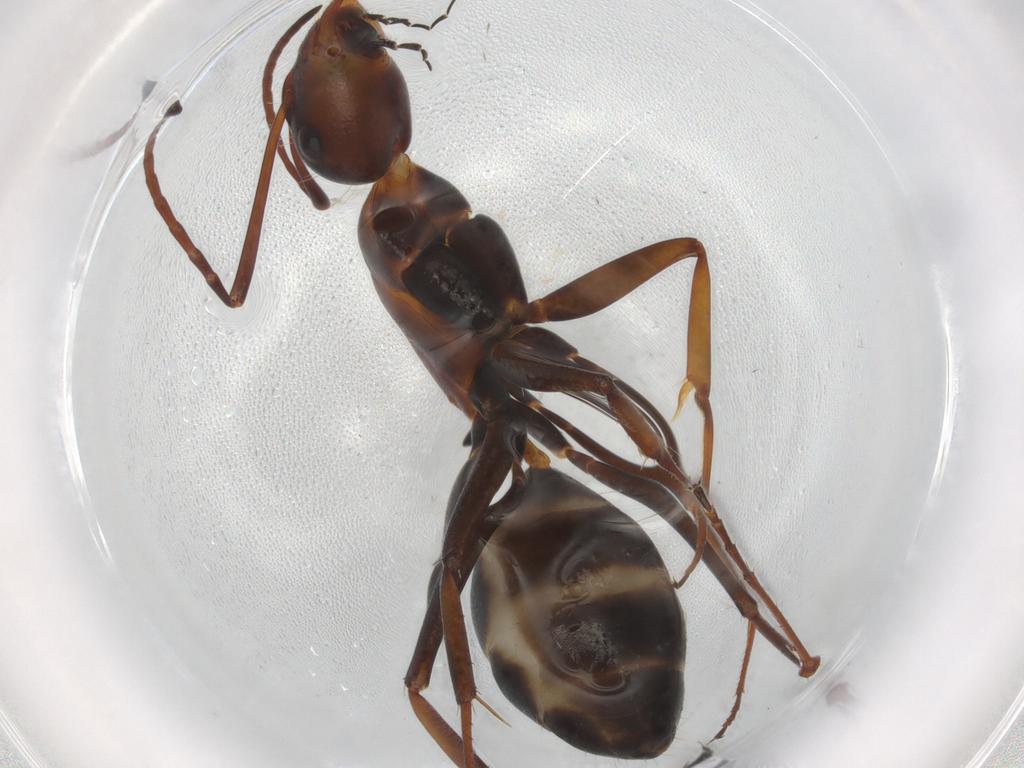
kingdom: Animalia
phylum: Arthropoda
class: Insecta
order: Hymenoptera
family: Formicidae
